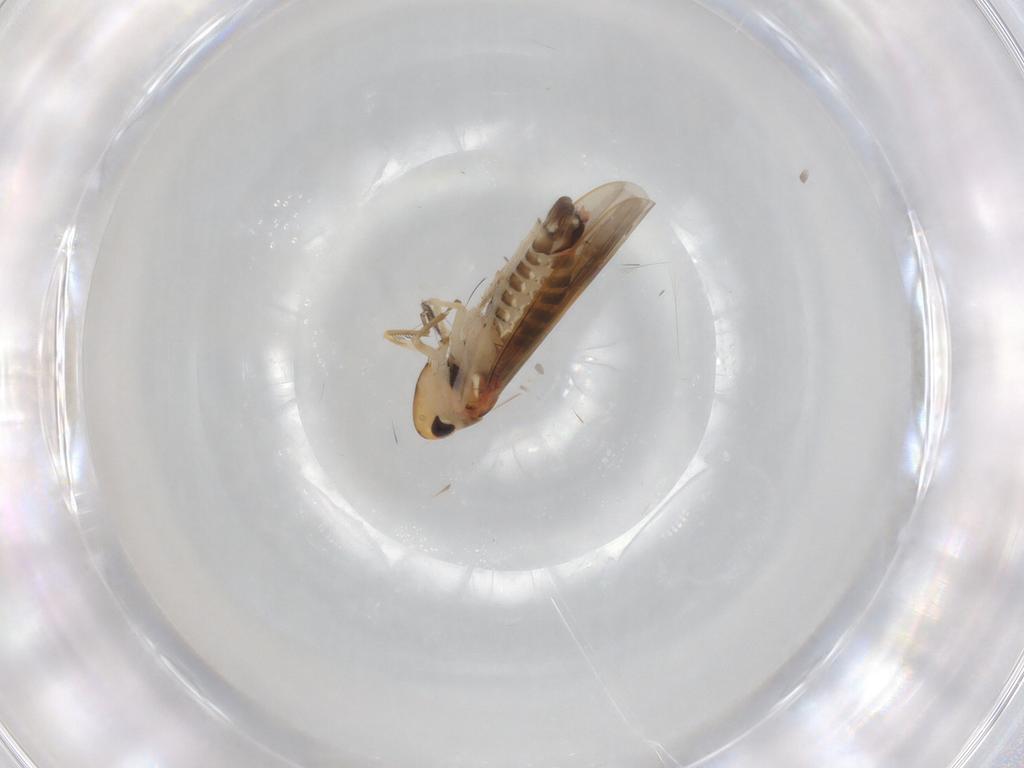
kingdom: Animalia
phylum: Arthropoda
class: Insecta
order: Hemiptera
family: Cicadellidae
